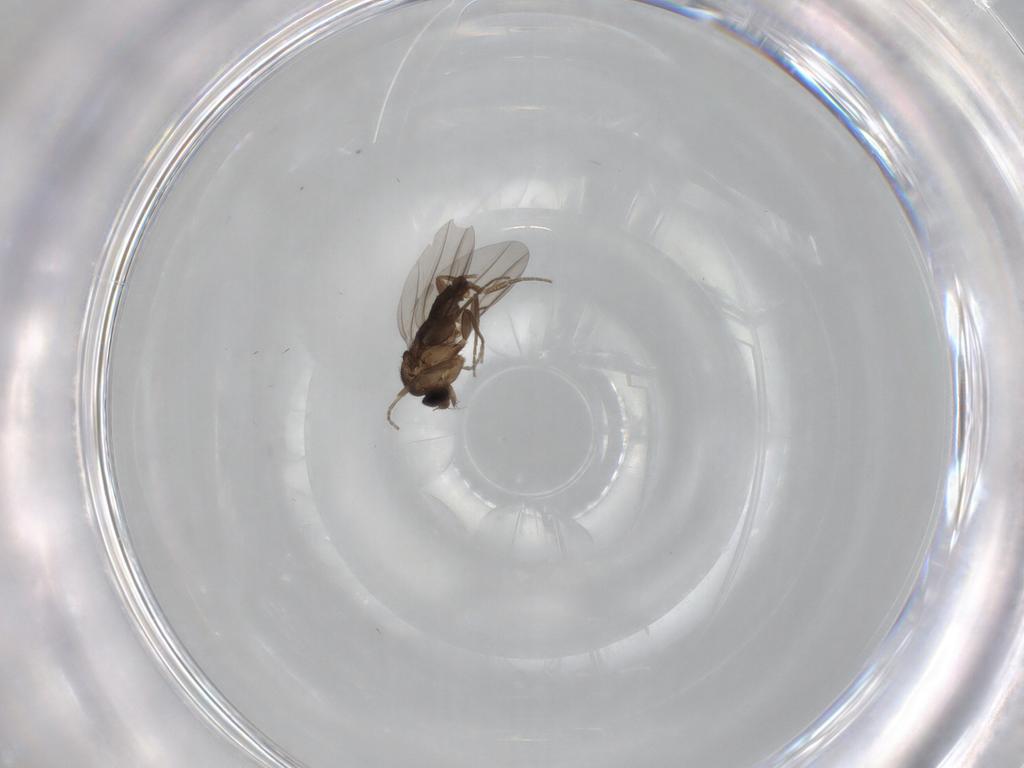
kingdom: Animalia
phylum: Arthropoda
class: Insecta
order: Diptera
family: Phoridae
